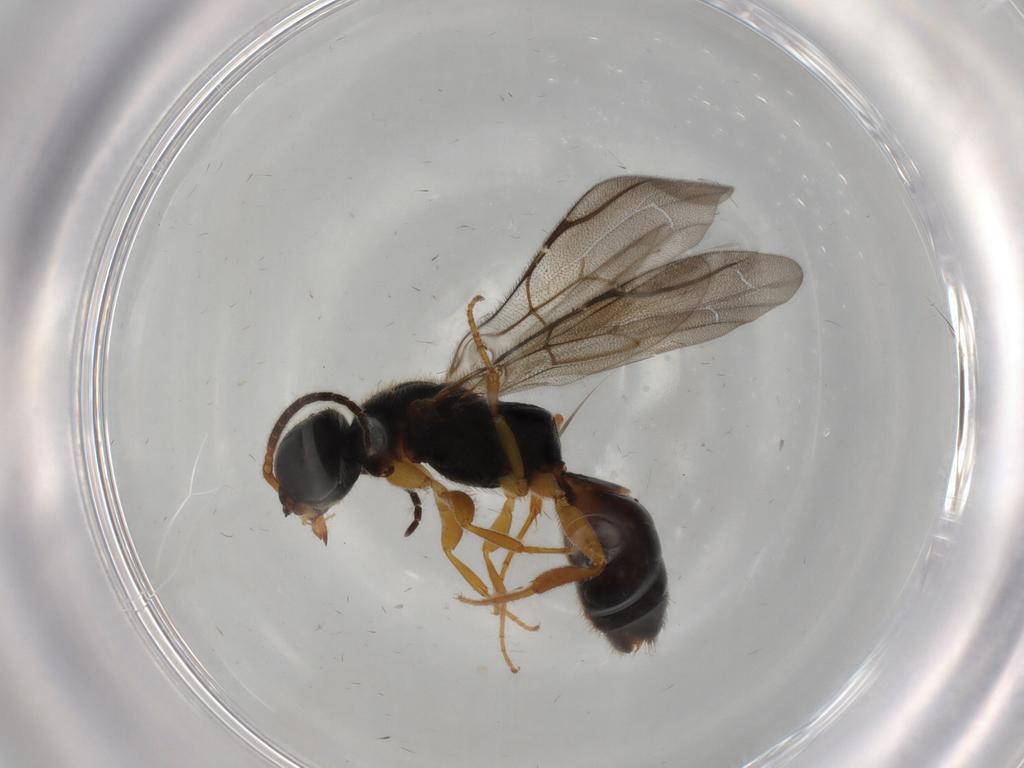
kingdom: Animalia
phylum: Arthropoda
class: Insecta
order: Hymenoptera
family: Bethylidae
